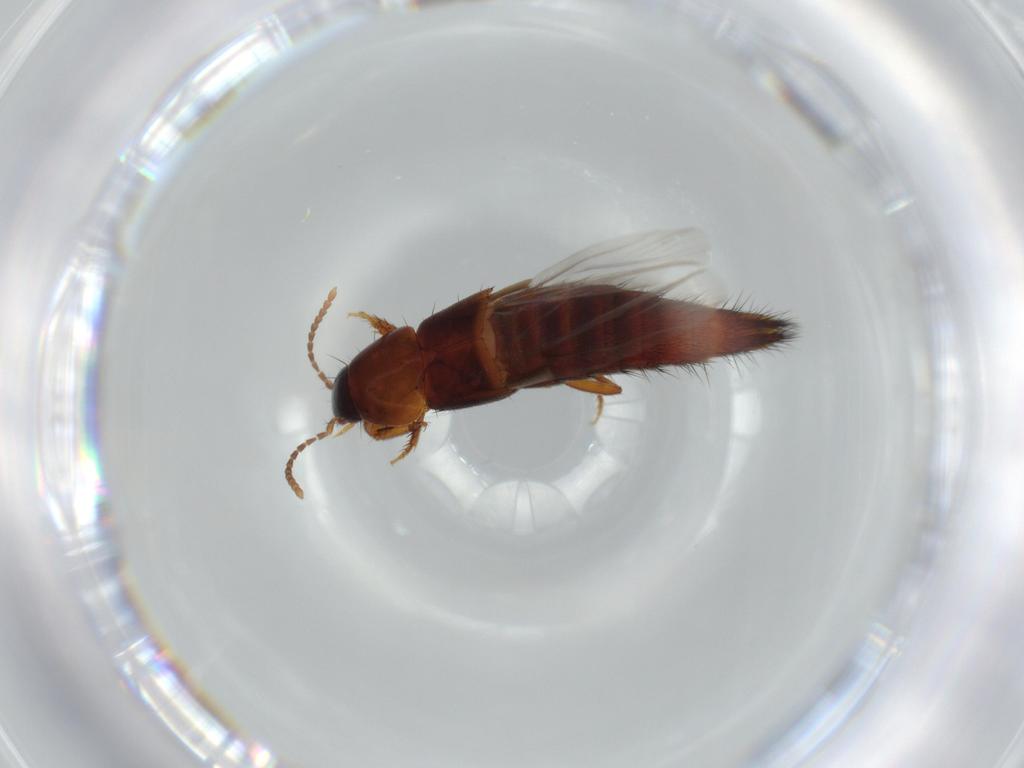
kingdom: Animalia
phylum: Arthropoda
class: Insecta
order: Coleoptera
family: Staphylinidae
